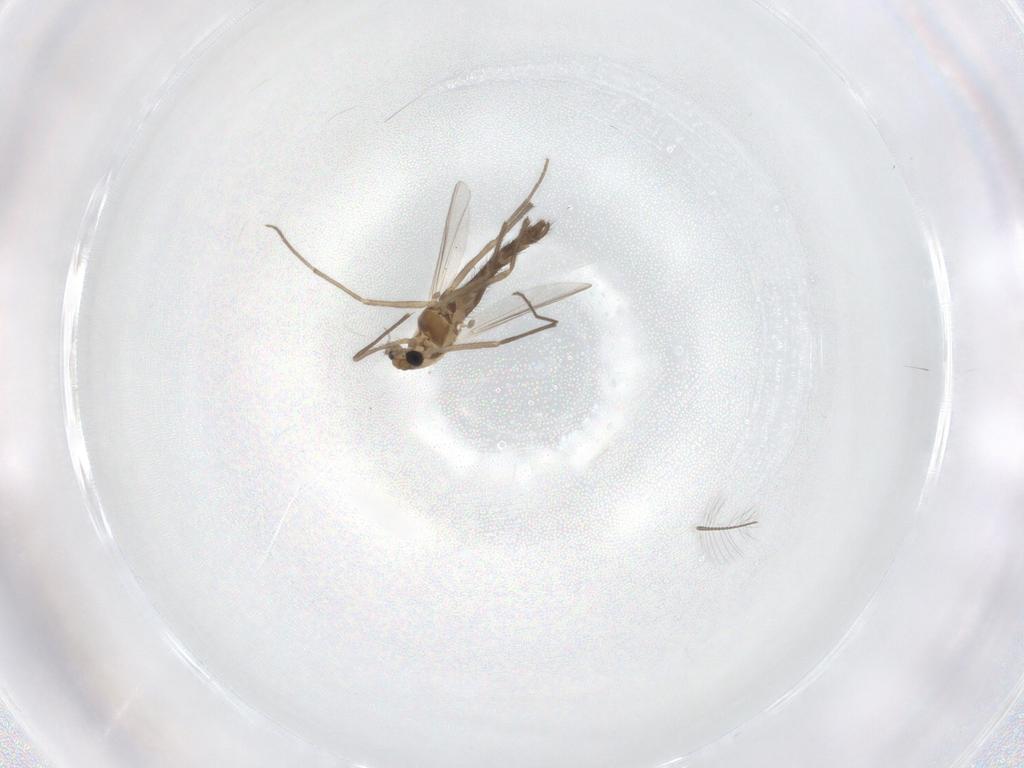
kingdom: Animalia
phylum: Arthropoda
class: Insecta
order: Diptera
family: Chironomidae
